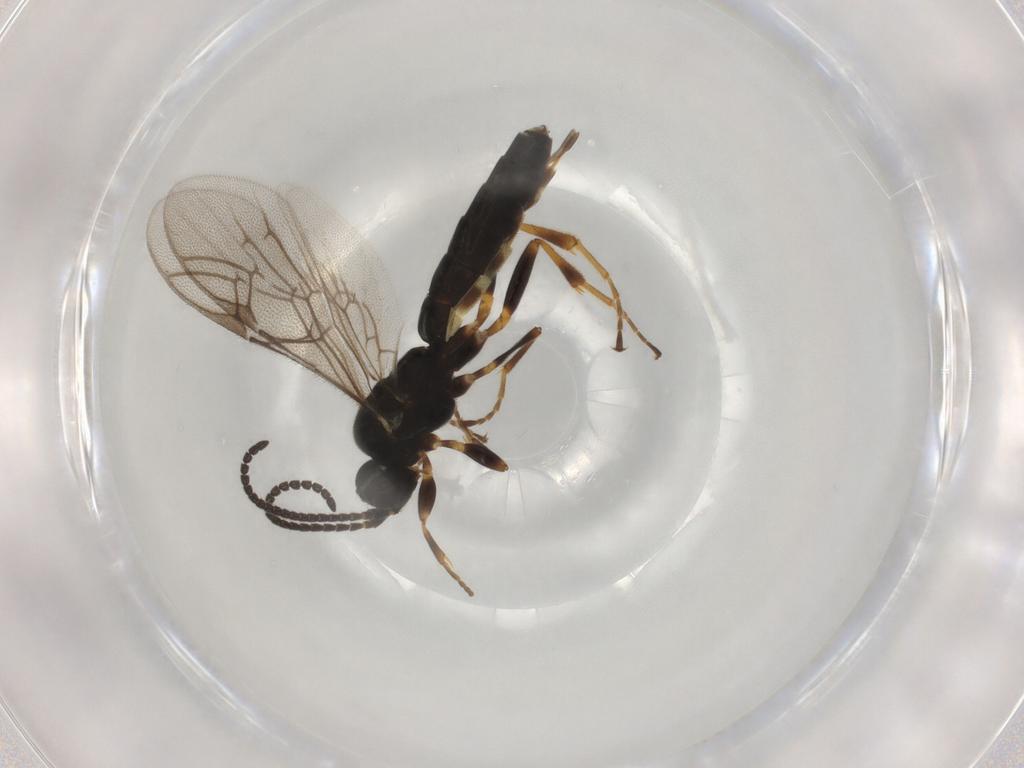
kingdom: Animalia
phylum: Arthropoda
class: Insecta
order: Hymenoptera
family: Ichneumonidae
